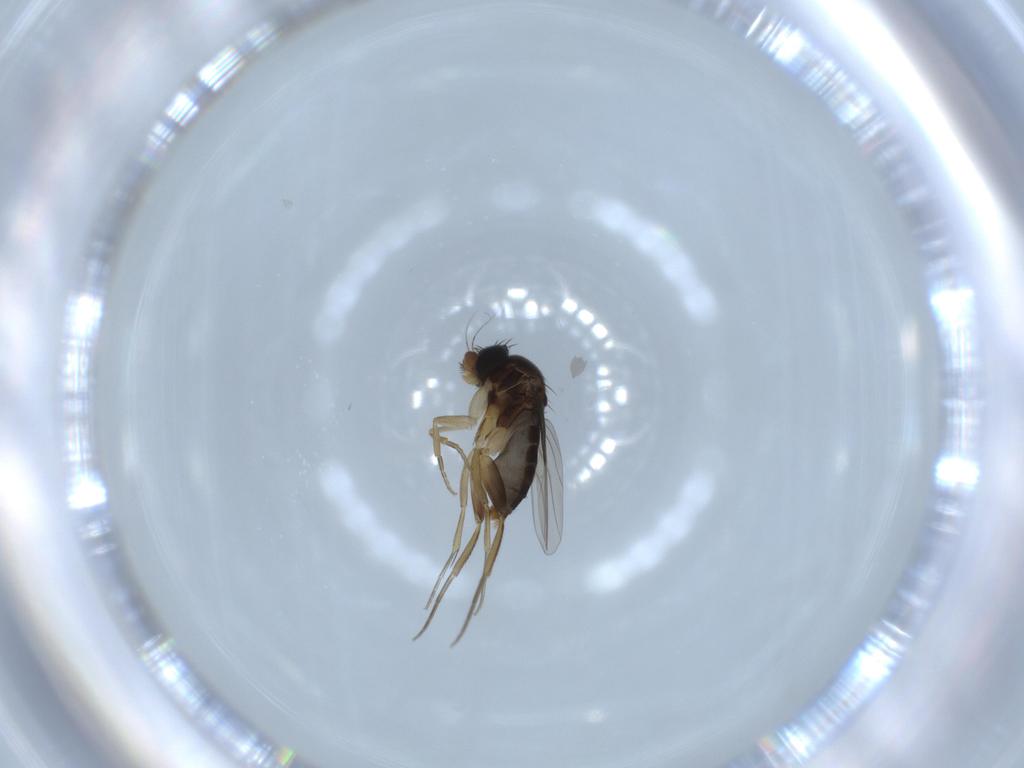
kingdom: Animalia
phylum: Arthropoda
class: Insecta
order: Diptera
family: Phoridae
